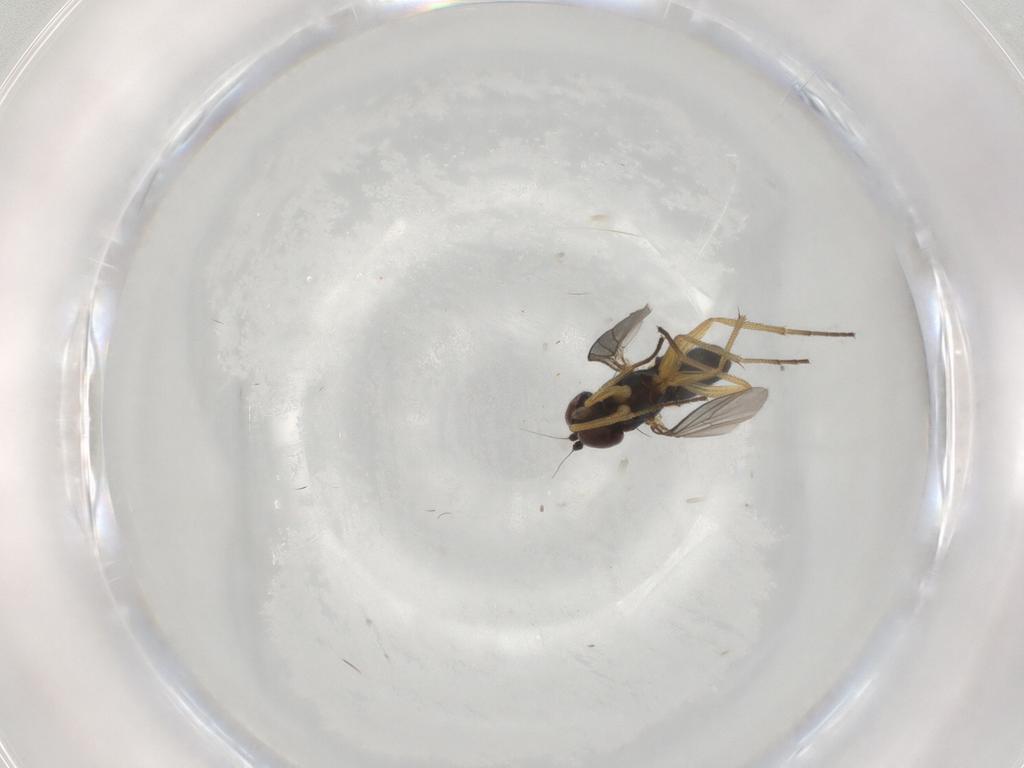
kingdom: Animalia
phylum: Arthropoda
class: Insecta
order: Diptera
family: Dolichopodidae
